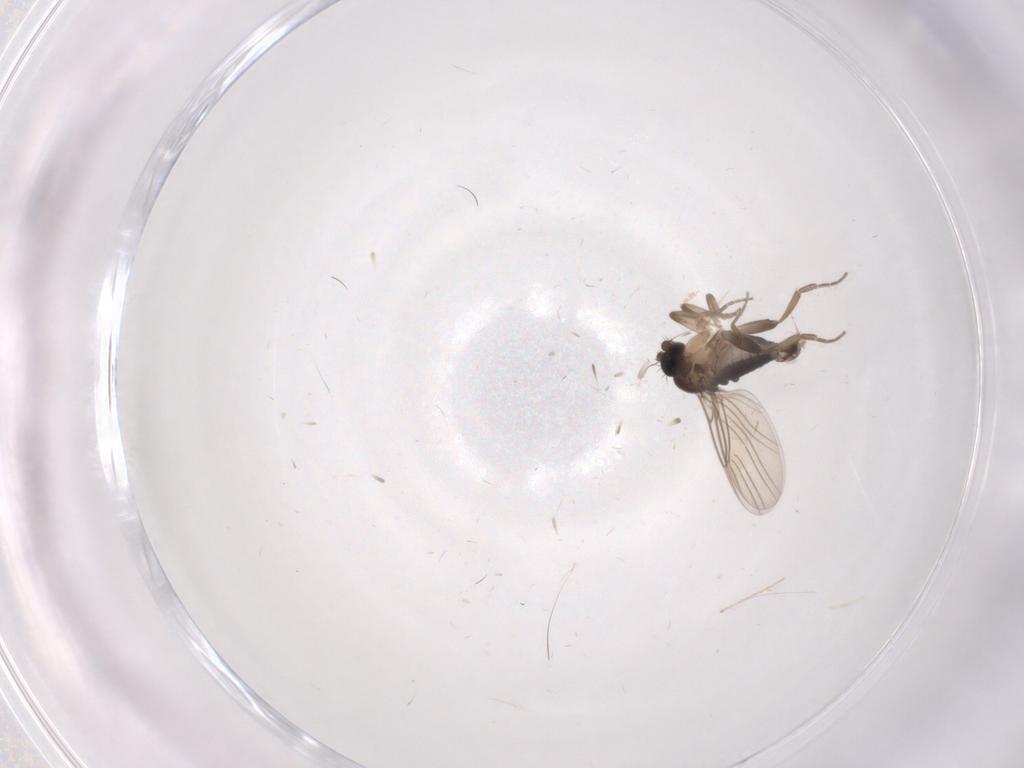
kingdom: Animalia
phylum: Arthropoda
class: Insecta
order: Diptera
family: Phoridae
